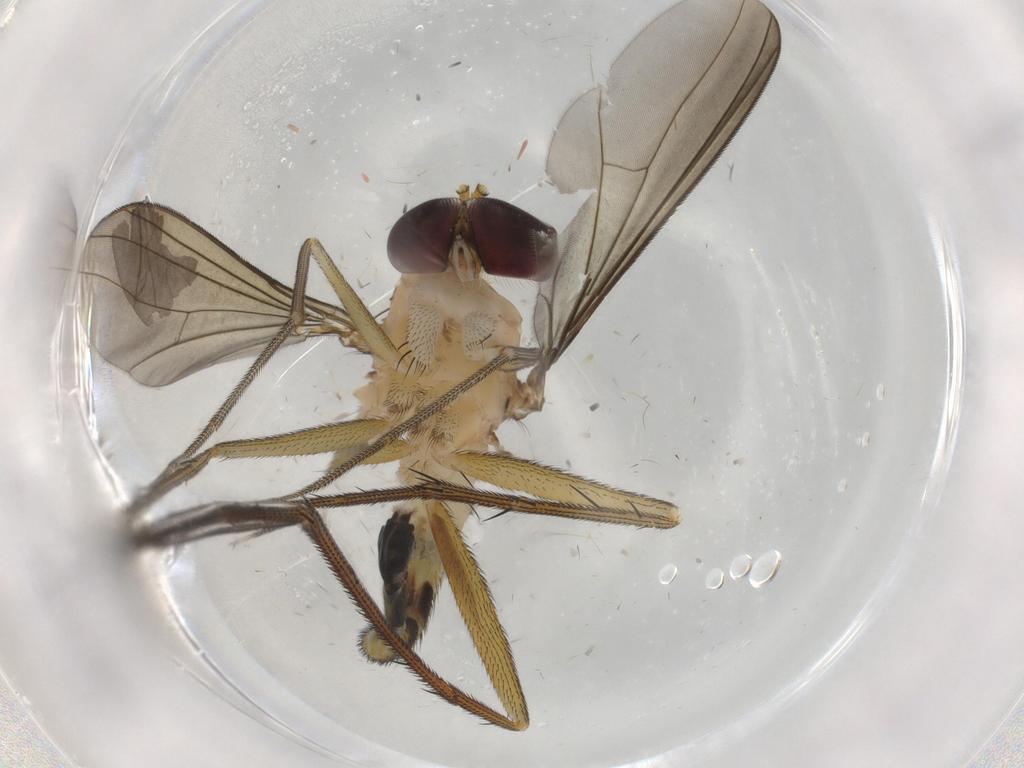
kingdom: Animalia
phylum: Arthropoda
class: Insecta
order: Diptera
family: Dolichopodidae
